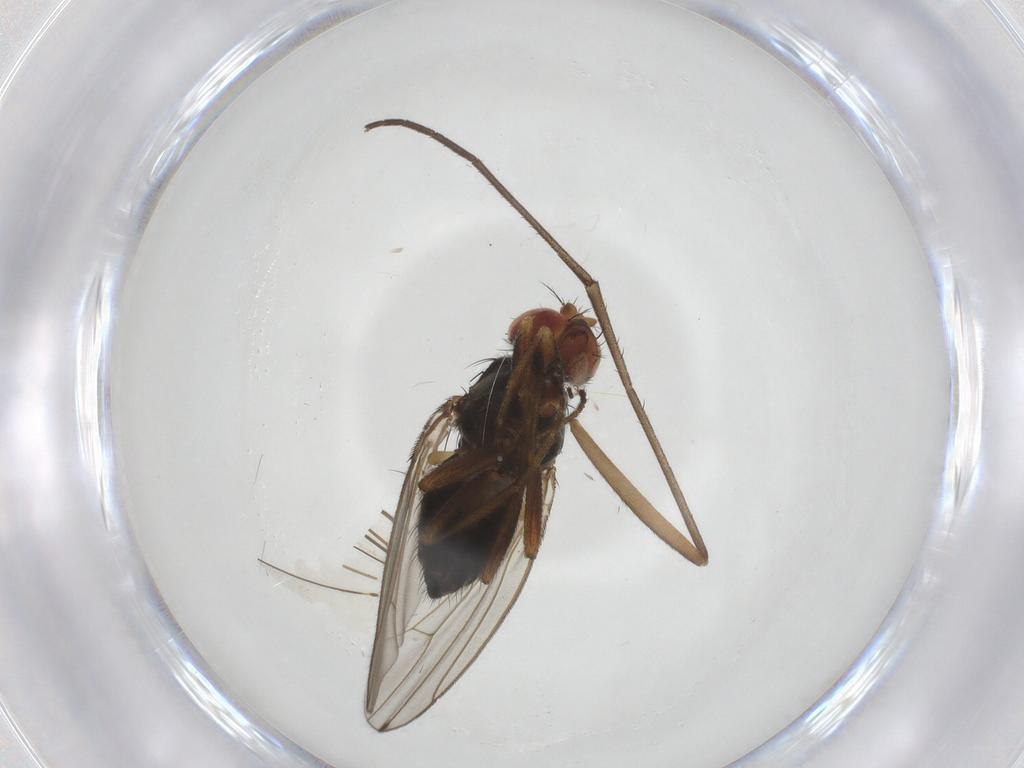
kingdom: Animalia
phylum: Arthropoda
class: Insecta
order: Diptera
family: Drosophilidae
